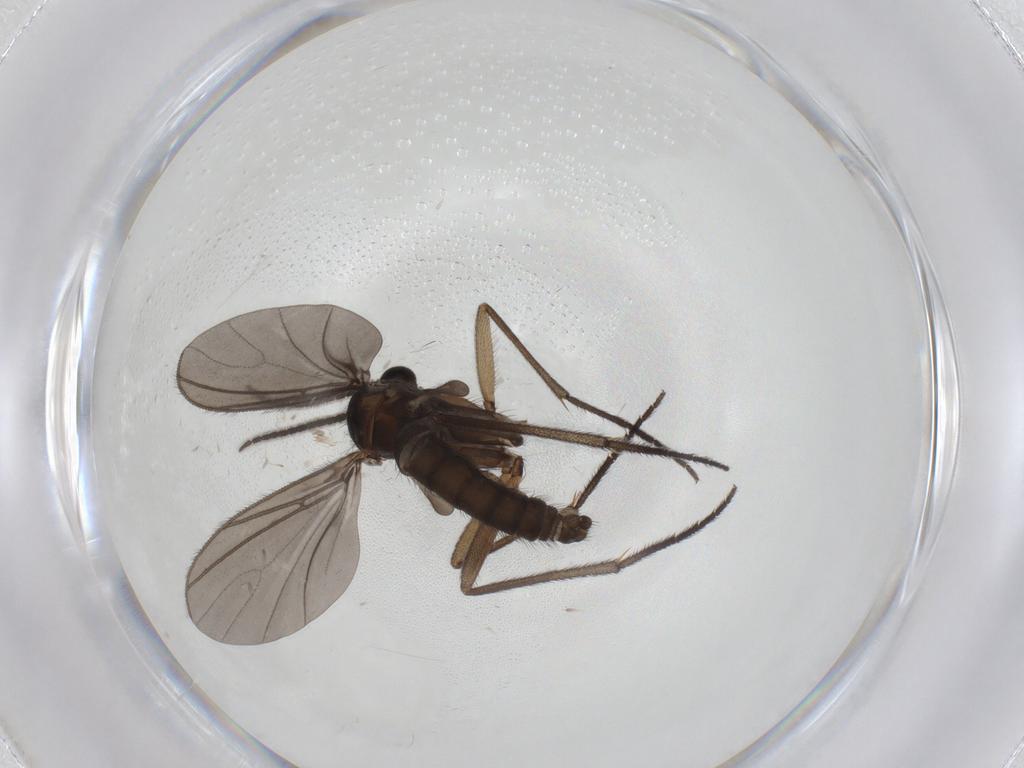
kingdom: Animalia
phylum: Arthropoda
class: Insecta
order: Diptera
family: Sciaridae
